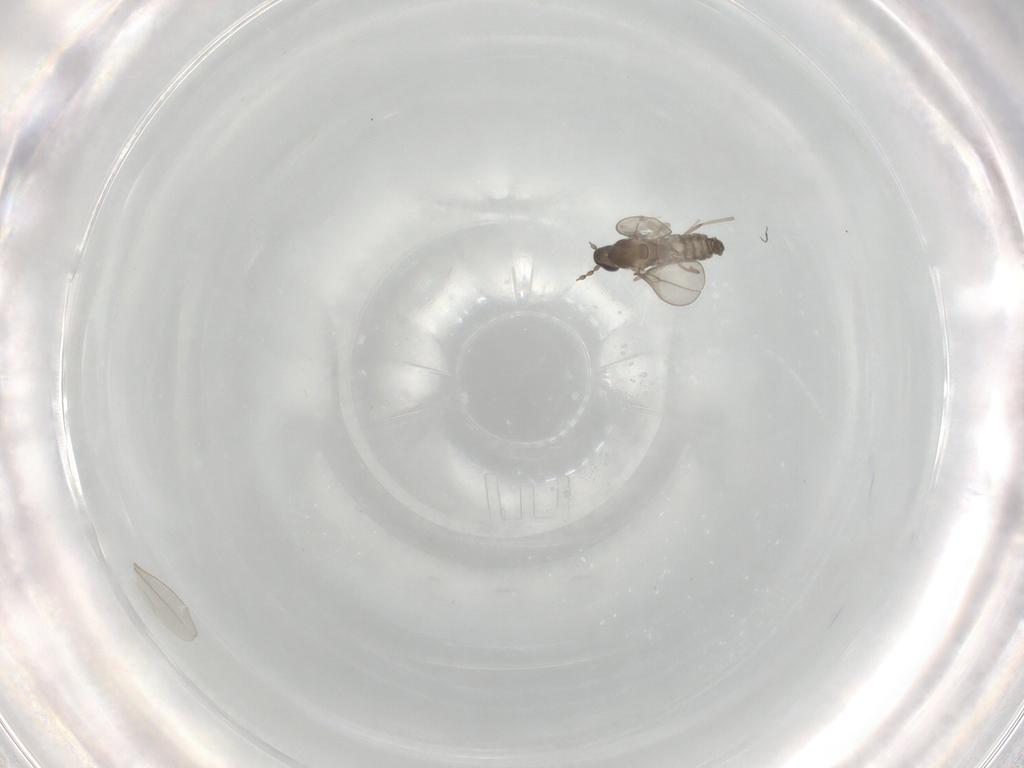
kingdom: Animalia
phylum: Arthropoda
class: Insecta
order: Diptera
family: Cecidomyiidae
